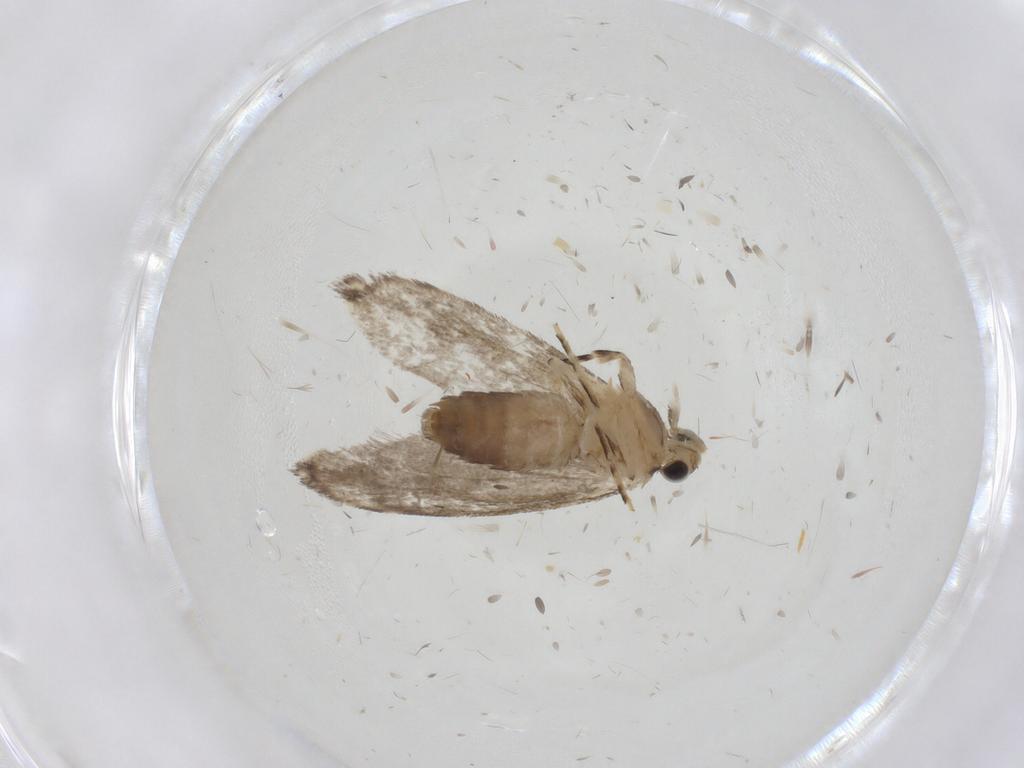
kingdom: Animalia
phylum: Arthropoda
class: Insecta
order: Lepidoptera
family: Tineidae
